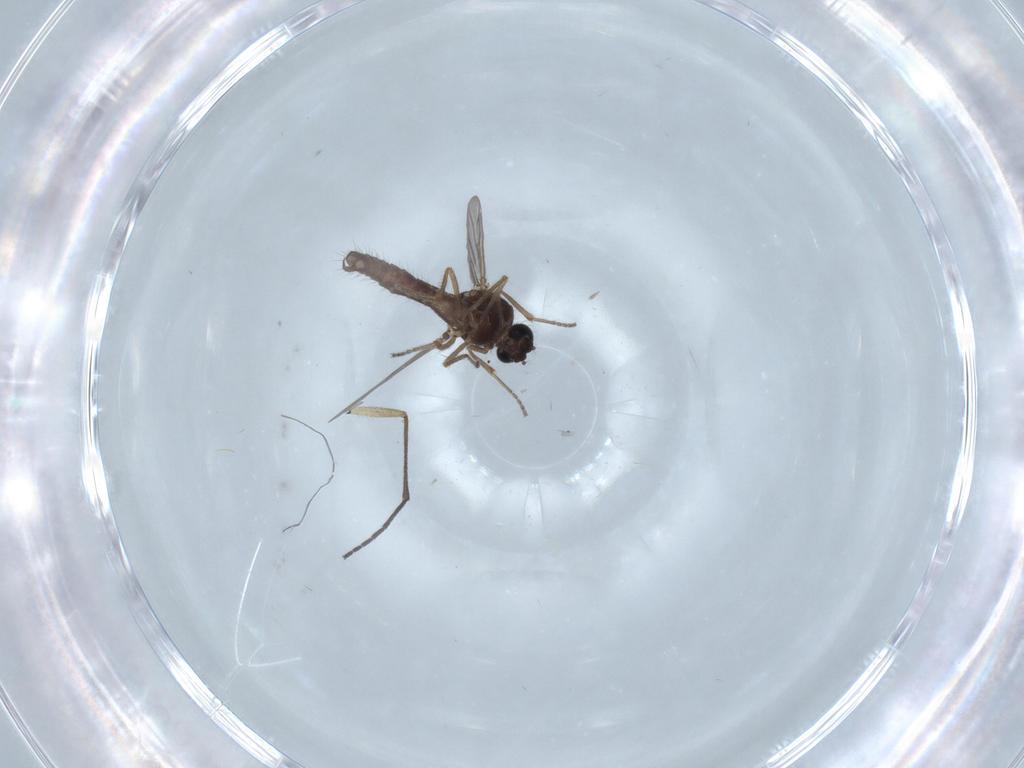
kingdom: Animalia
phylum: Arthropoda
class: Insecta
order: Diptera
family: Ceratopogonidae
